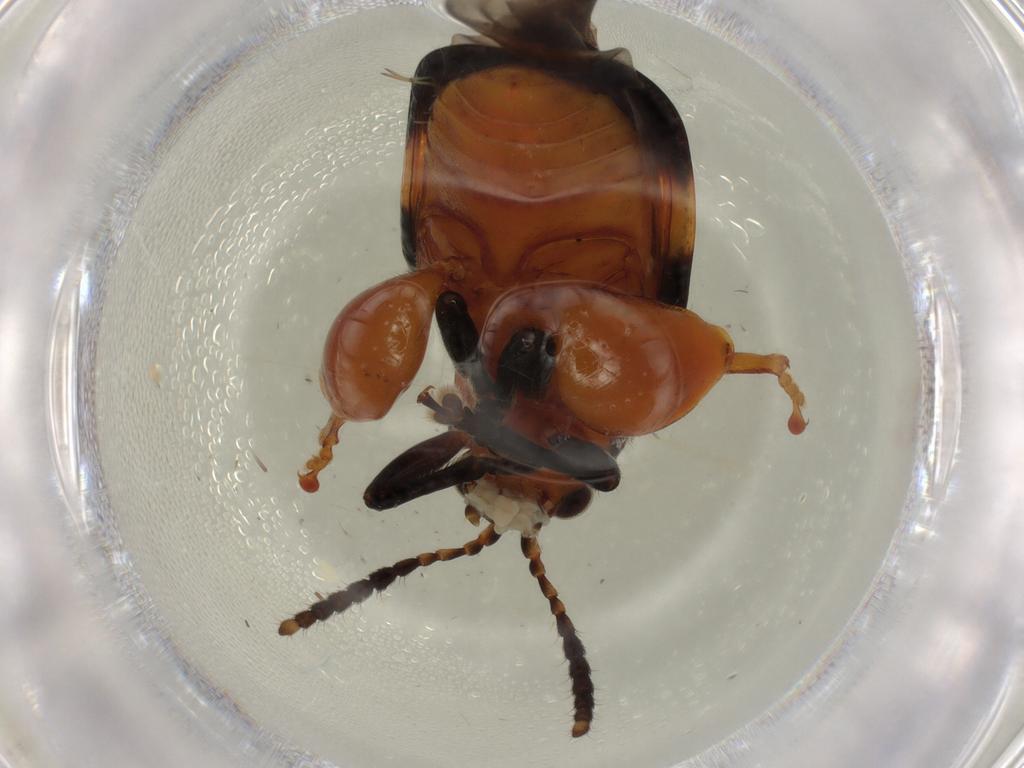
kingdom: Animalia
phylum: Arthropoda
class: Insecta
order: Coleoptera
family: Chrysomelidae
